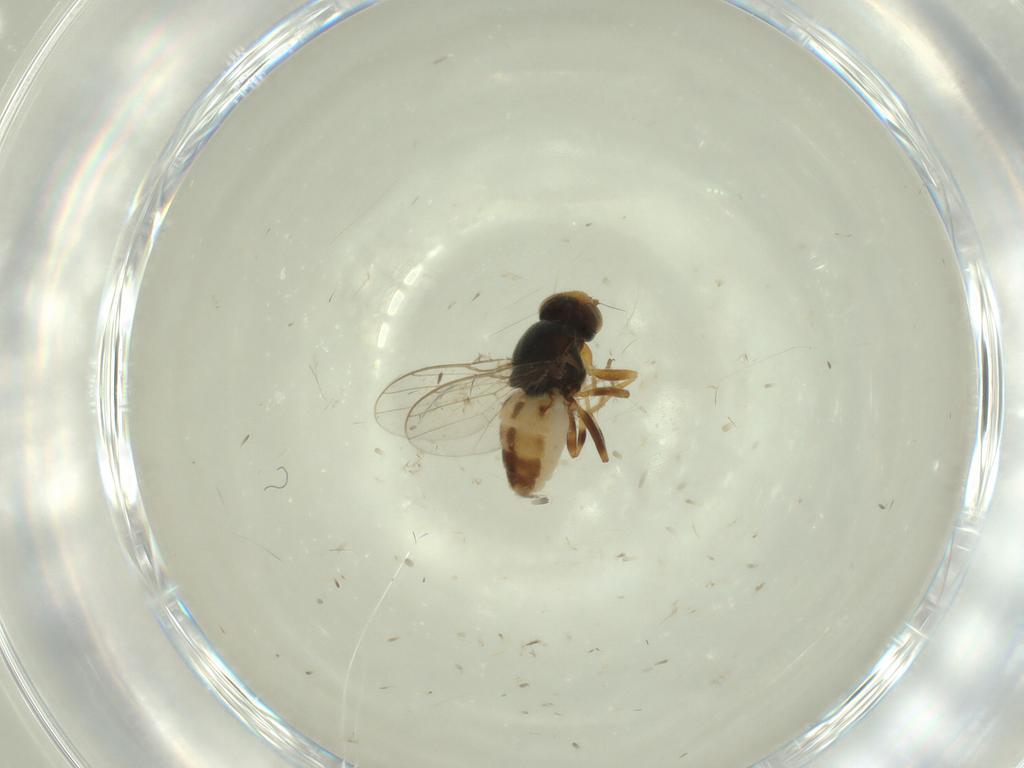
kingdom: Animalia
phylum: Arthropoda
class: Insecta
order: Diptera
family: Chloropidae
